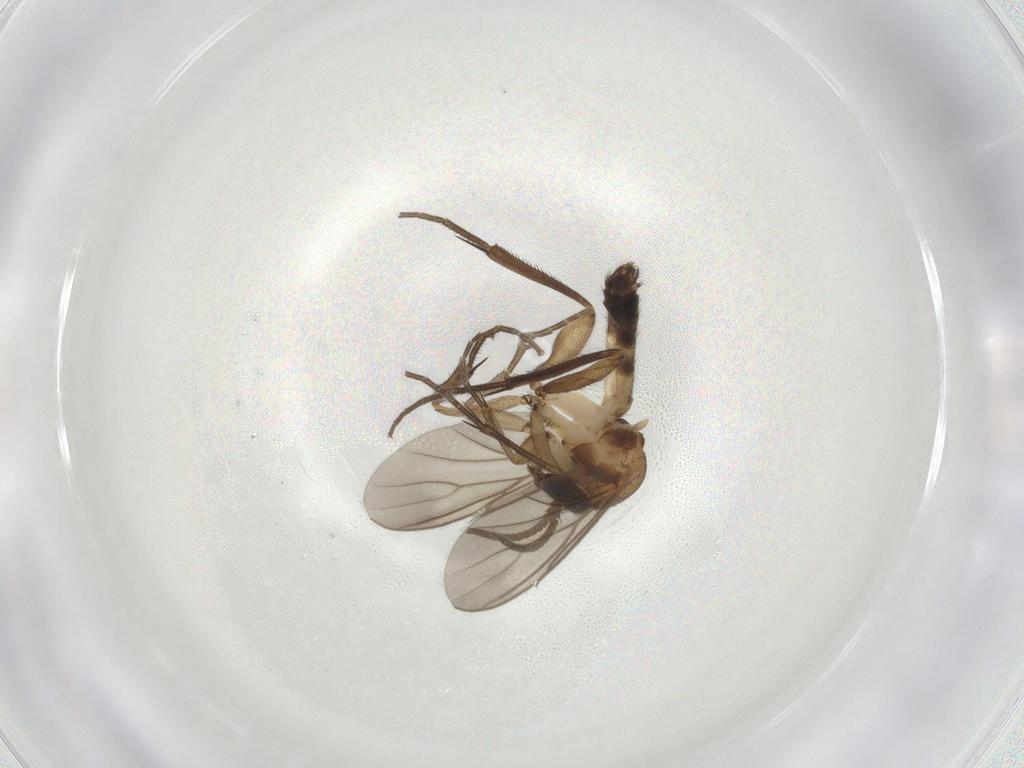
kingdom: Animalia
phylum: Arthropoda
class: Insecta
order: Diptera
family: Mycetophilidae
